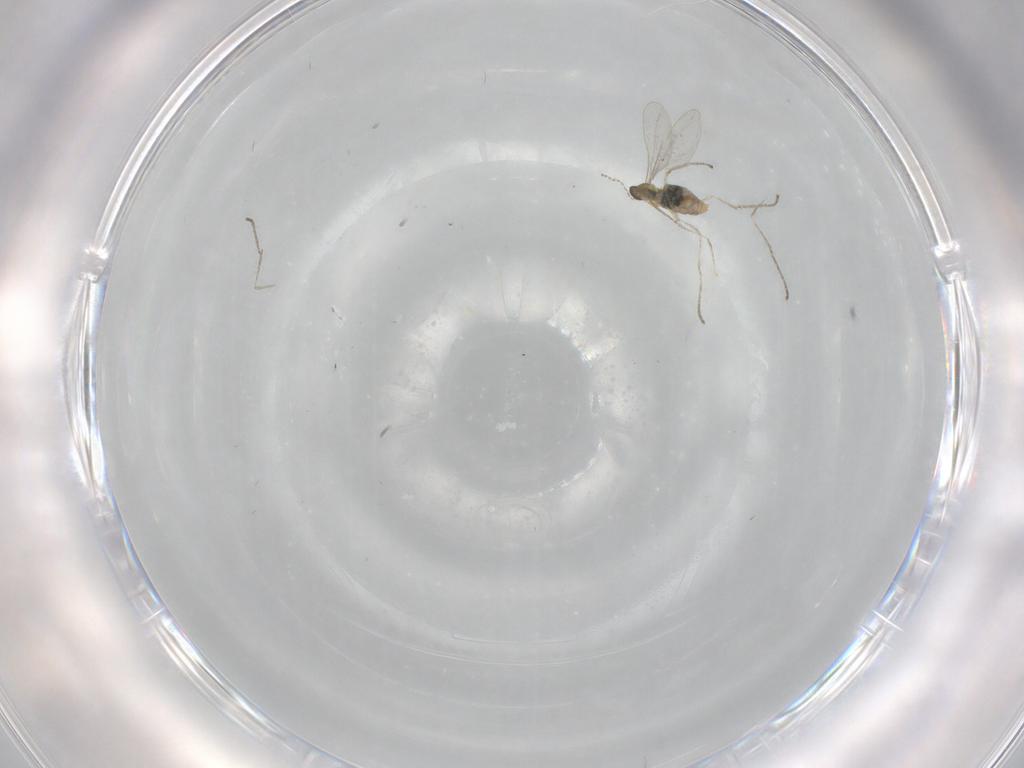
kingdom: Animalia
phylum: Arthropoda
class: Insecta
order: Diptera
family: Cecidomyiidae
